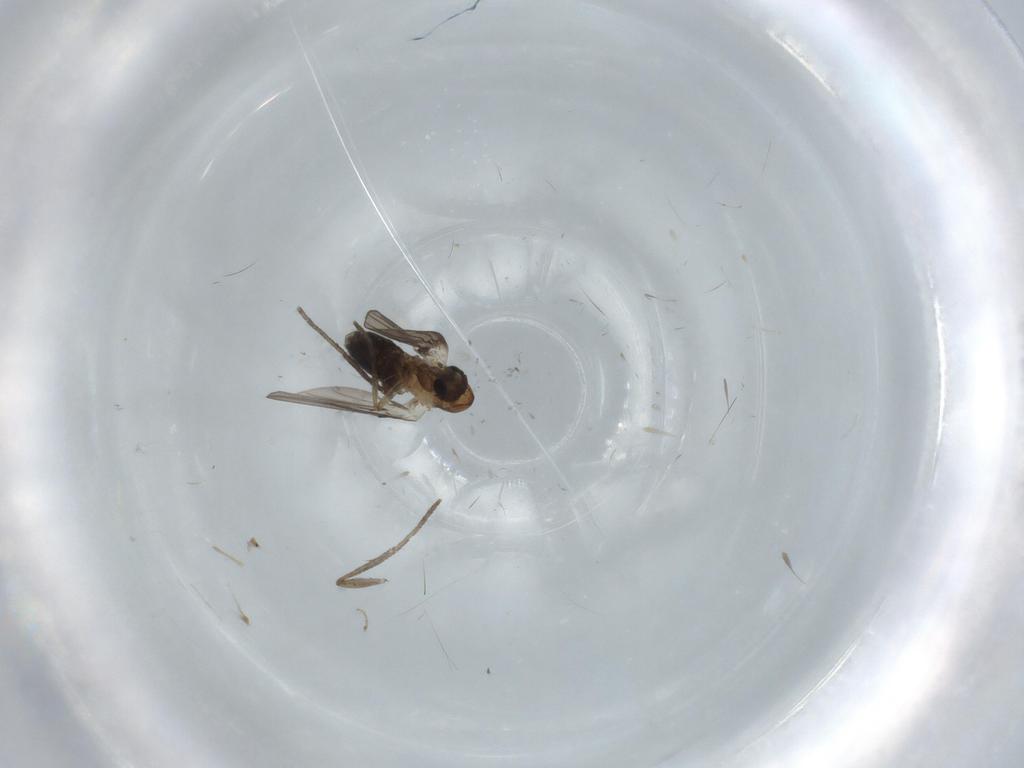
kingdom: Animalia
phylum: Arthropoda
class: Insecta
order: Diptera
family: Psychodidae
